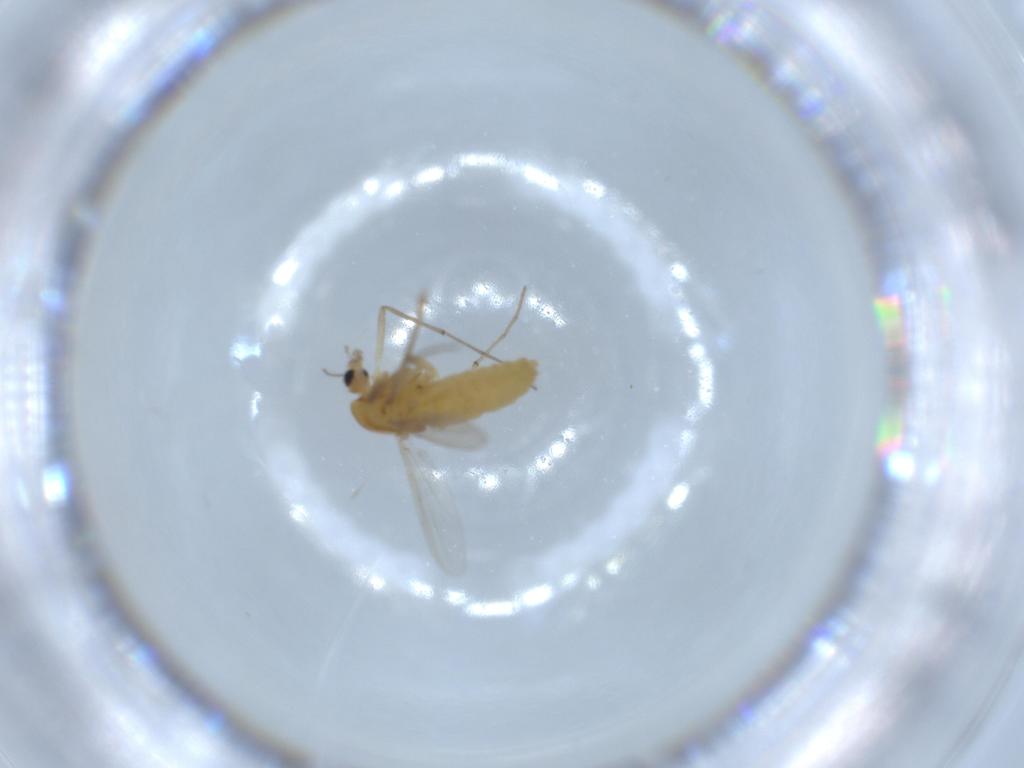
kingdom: Animalia
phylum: Arthropoda
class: Insecta
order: Diptera
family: Chironomidae
